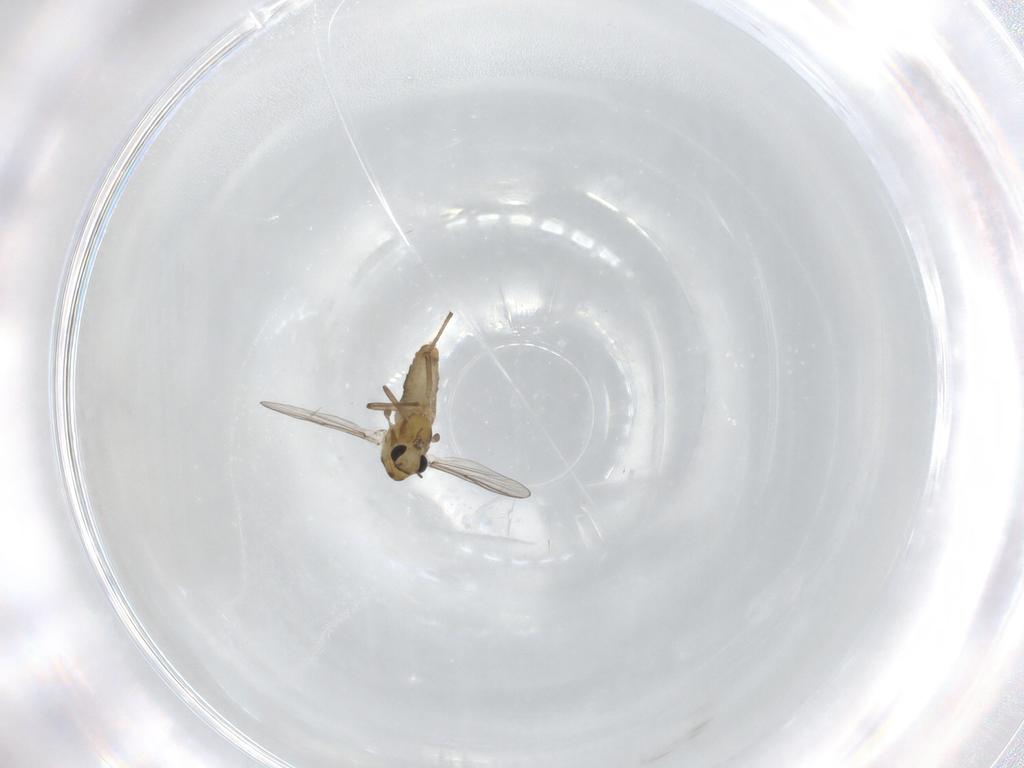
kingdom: Animalia
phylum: Arthropoda
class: Insecta
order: Diptera
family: Chironomidae
